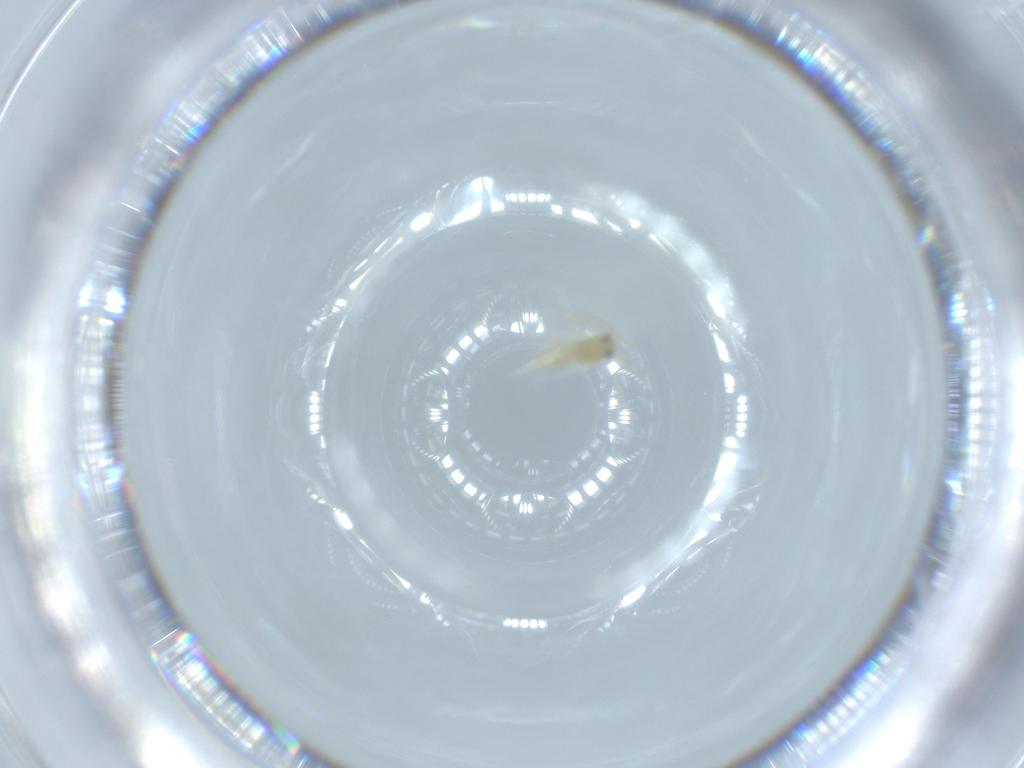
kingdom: Animalia
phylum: Arthropoda
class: Insecta
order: Hemiptera
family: Aleyrodidae
